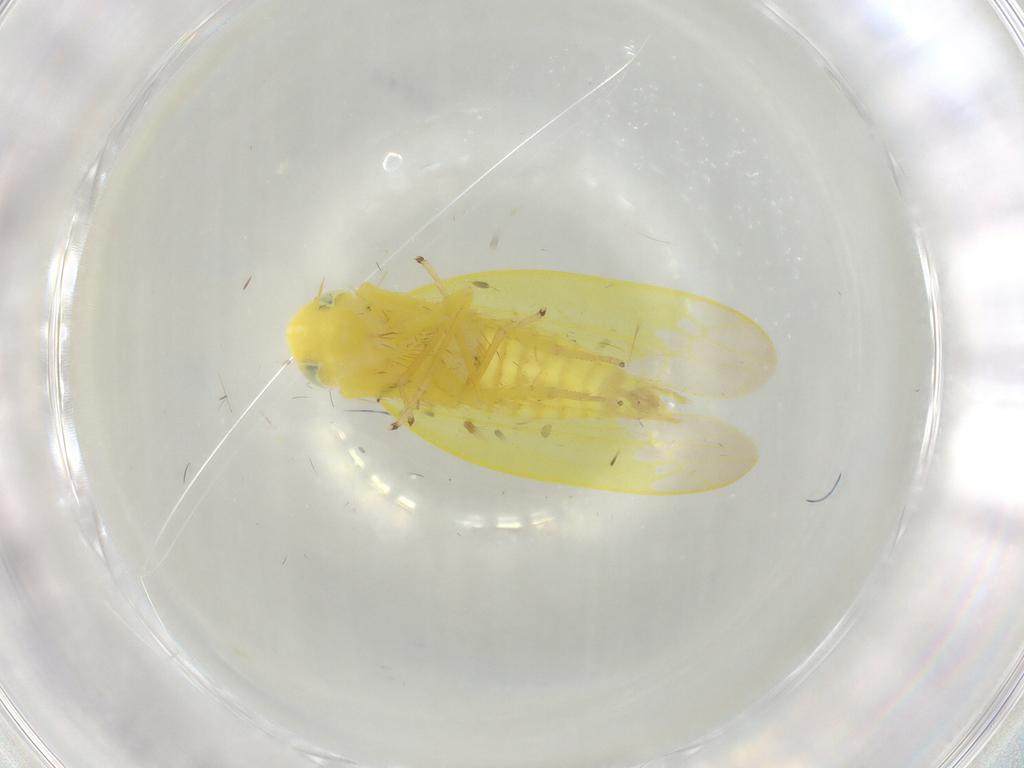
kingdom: Animalia
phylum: Arthropoda
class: Insecta
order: Hemiptera
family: Cicadellidae
